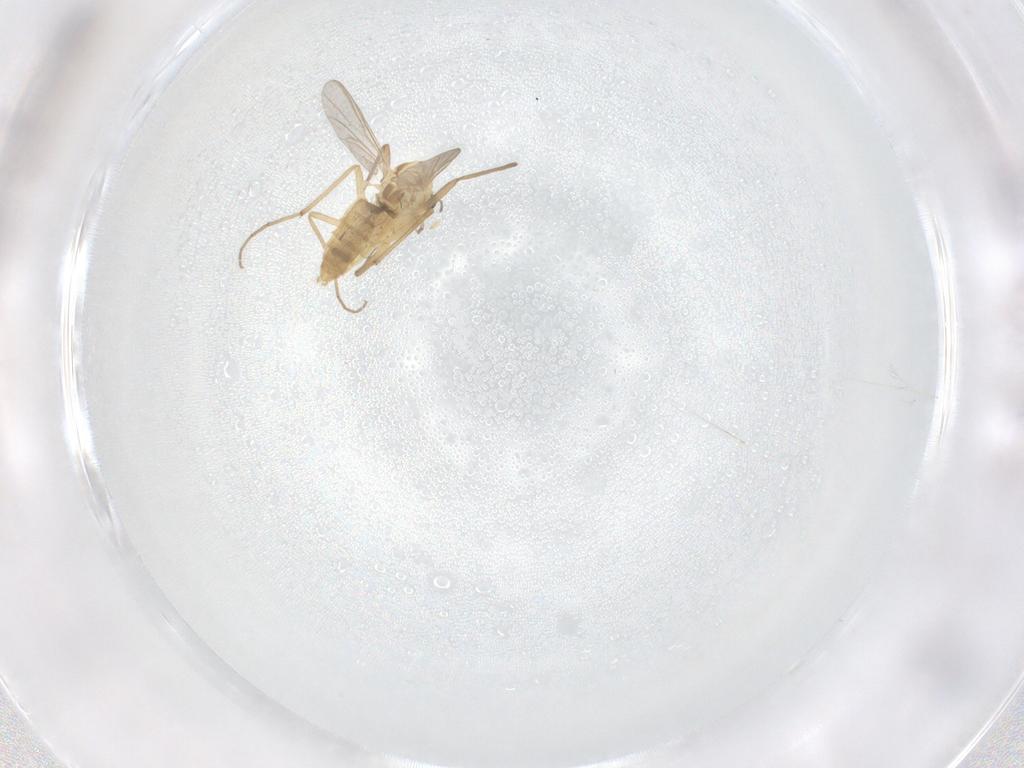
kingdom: Animalia
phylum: Arthropoda
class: Insecta
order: Diptera
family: Chironomidae
